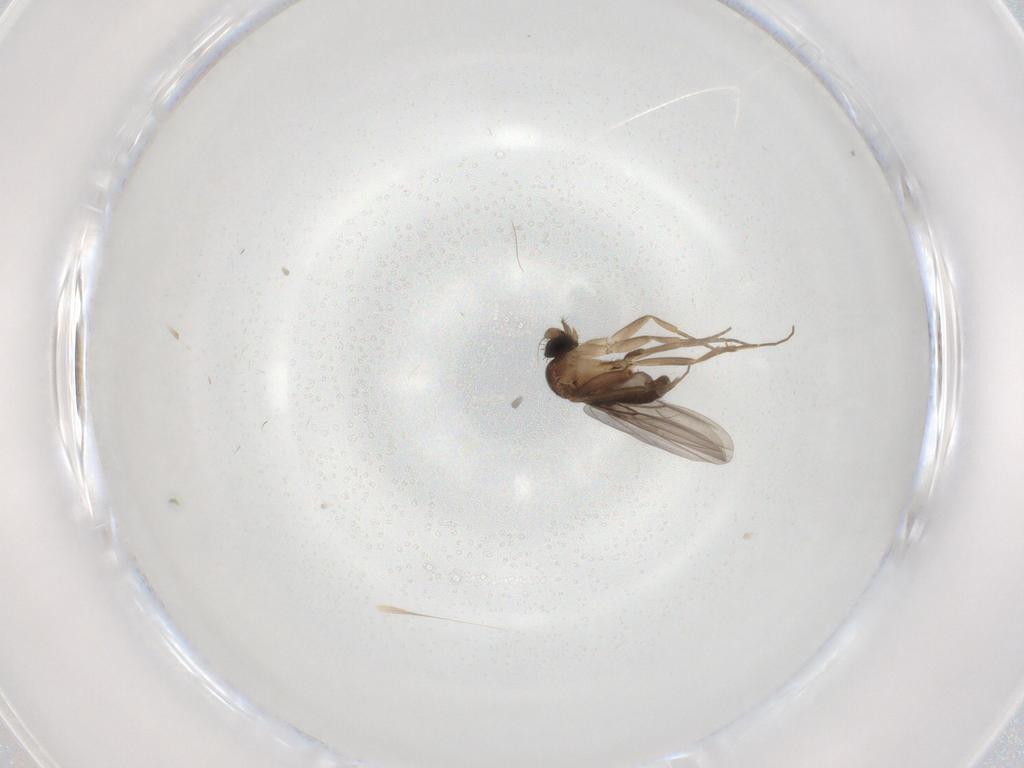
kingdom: Animalia
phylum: Arthropoda
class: Insecta
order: Diptera
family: Chironomidae
